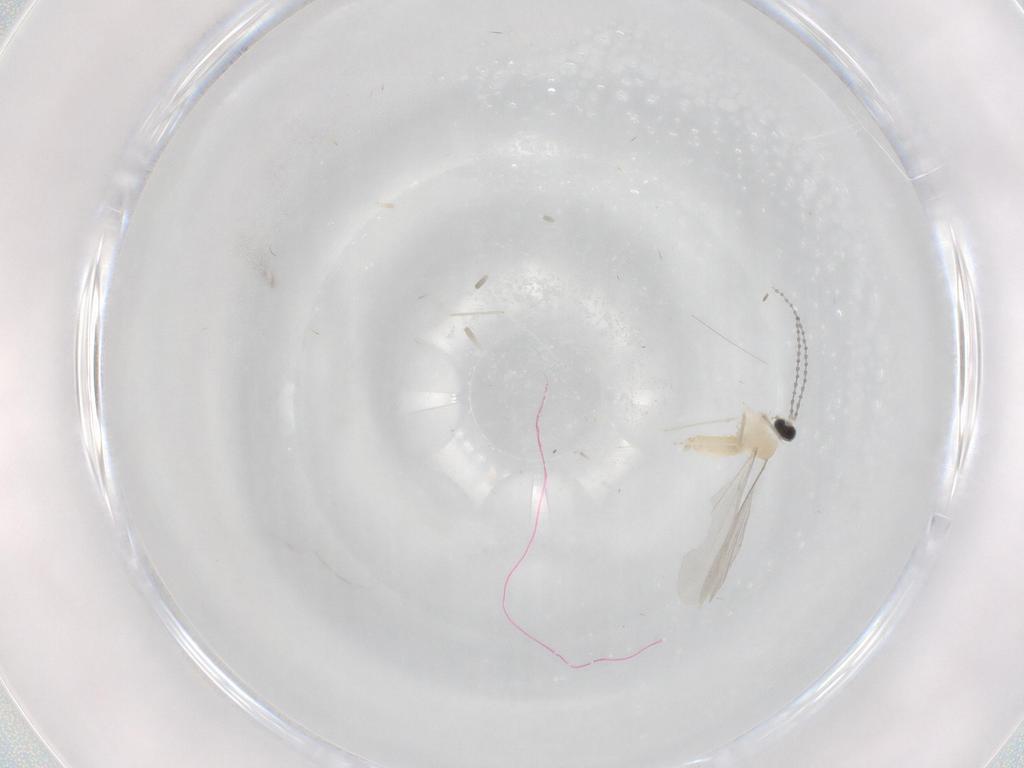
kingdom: Animalia
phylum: Arthropoda
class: Insecta
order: Diptera
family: Cecidomyiidae
